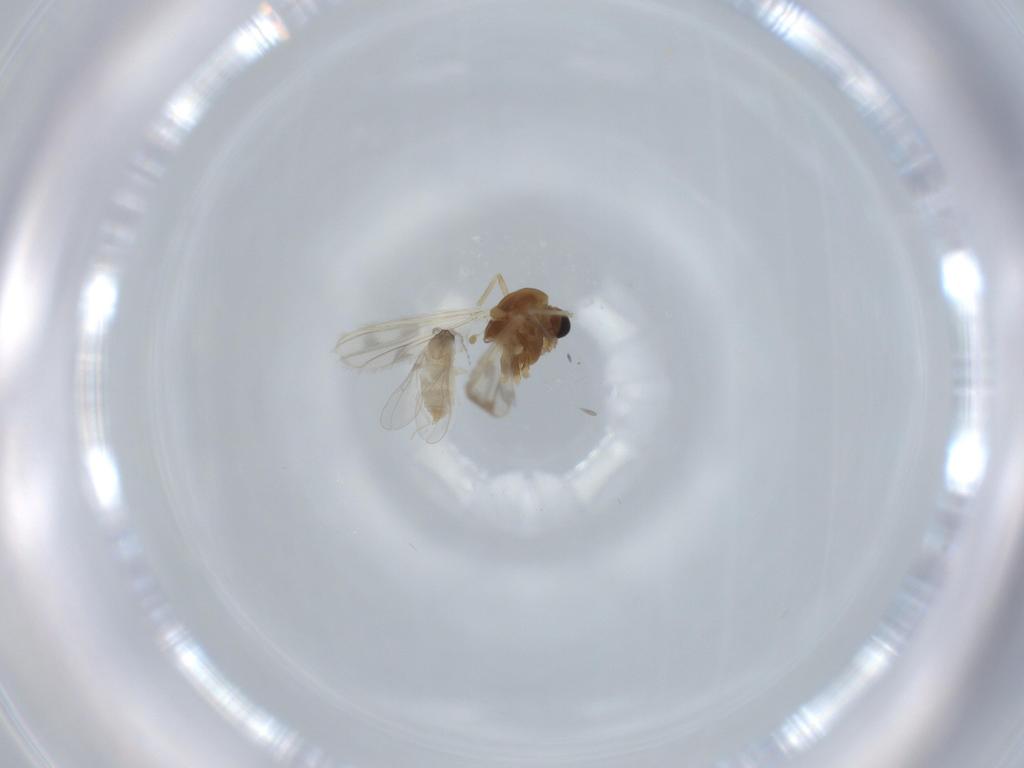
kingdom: Animalia
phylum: Arthropoda
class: Insecta
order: Diptera
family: Cecidomyiidae
